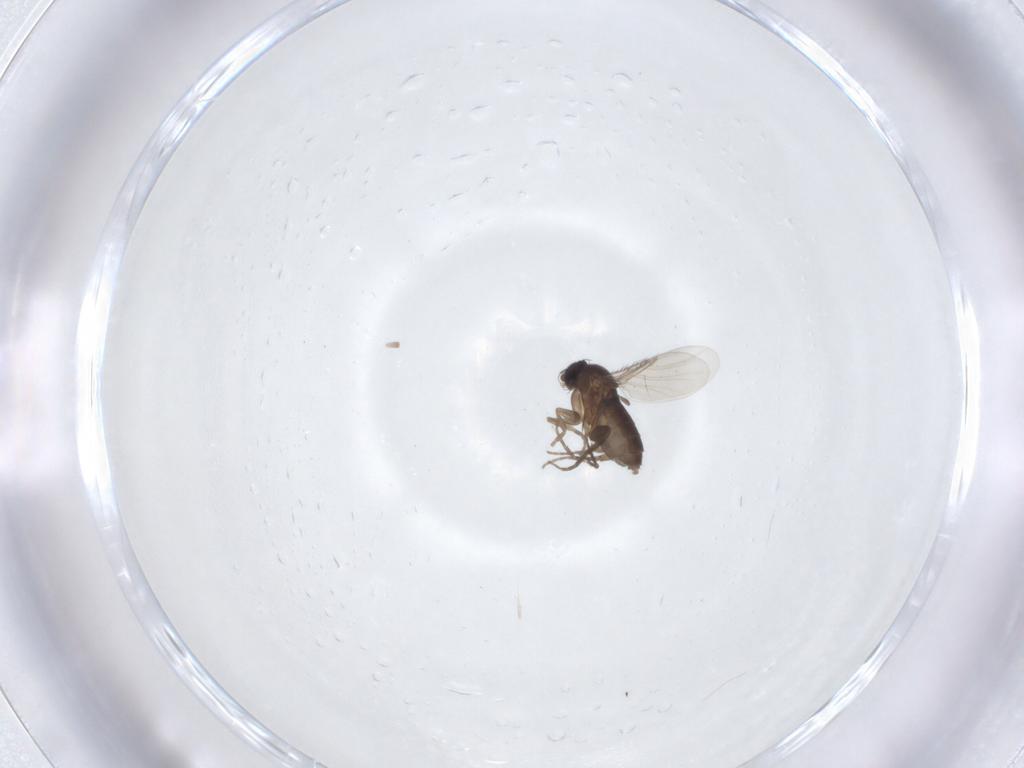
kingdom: Animalia
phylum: Arthropoda
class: Insecta
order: Diptera
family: Phoridae
